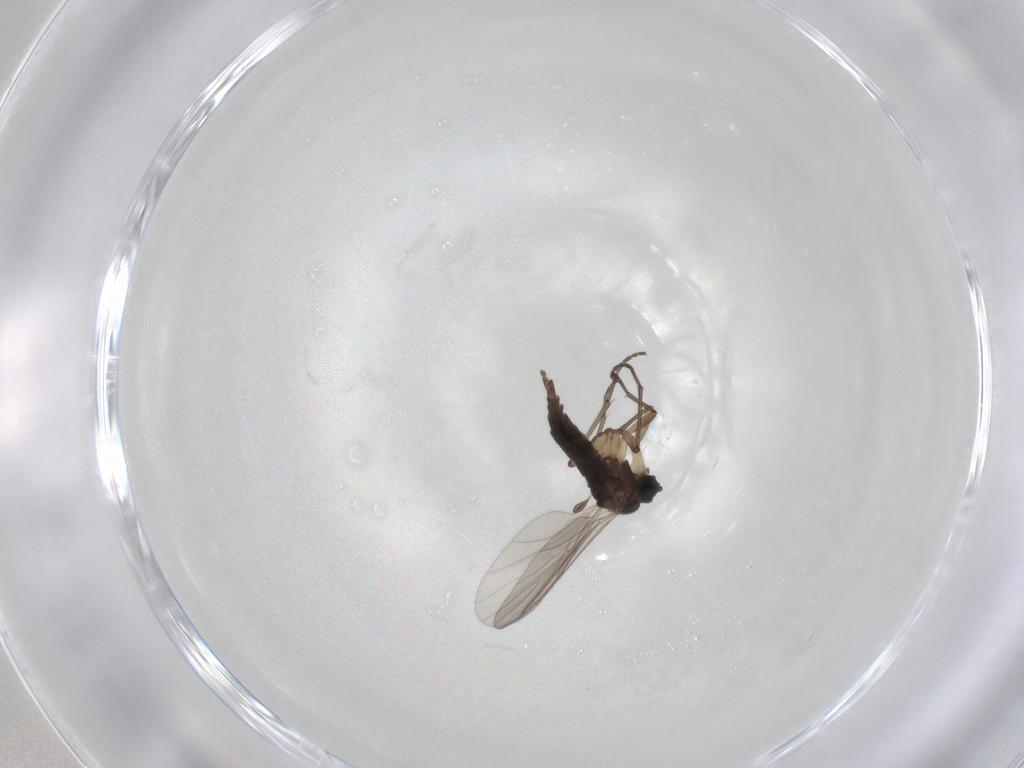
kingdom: Animalia
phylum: Arthropoda
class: Insecta
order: Diptera
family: Sciaridae
